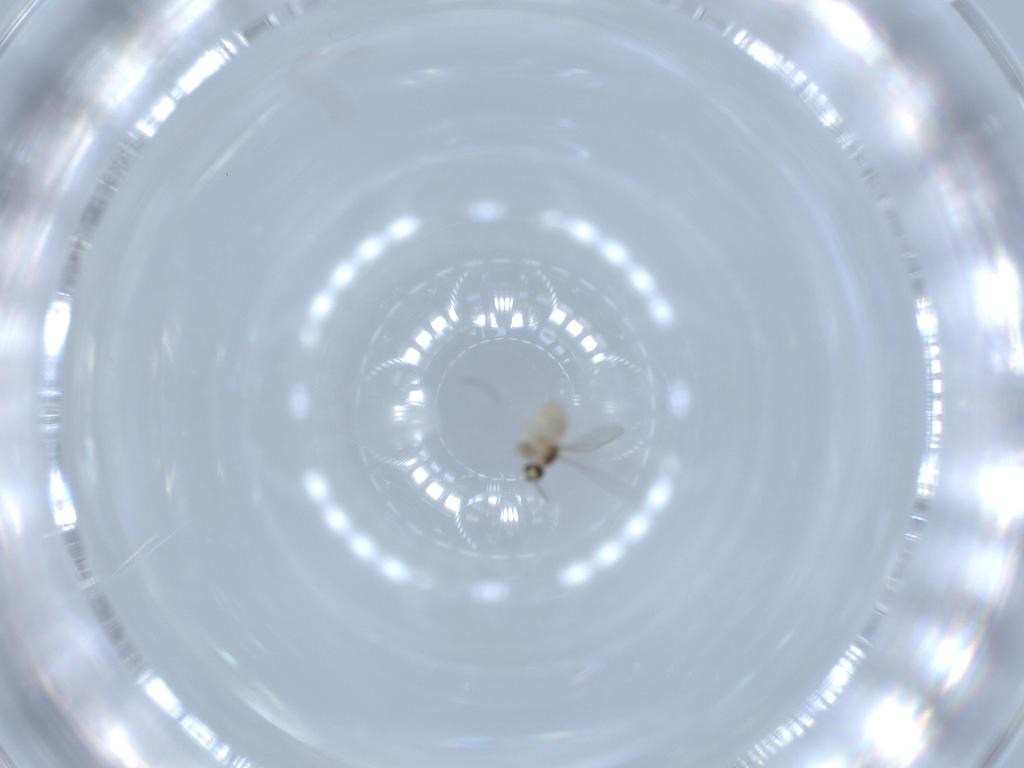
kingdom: Animalia
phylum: Arthropoda
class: Insecta
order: Diptera
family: Cecidomyiidae
